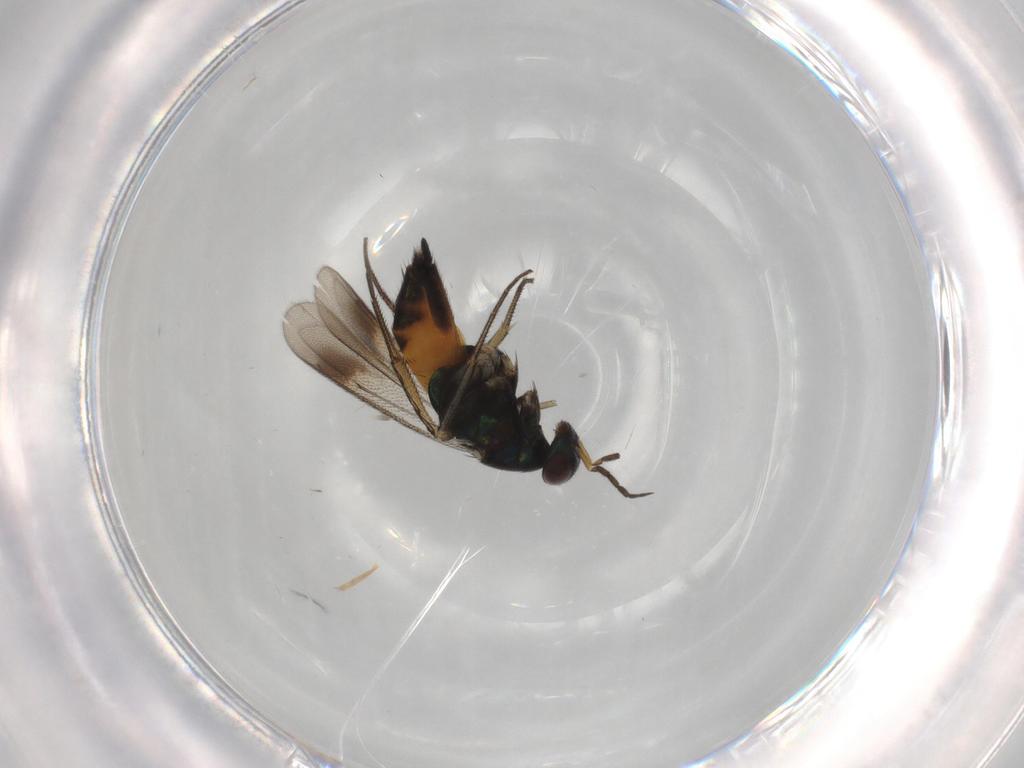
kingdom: Animalia
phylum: Arthropoda
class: Insecta
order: Hymenoptera
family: Eulophidae
